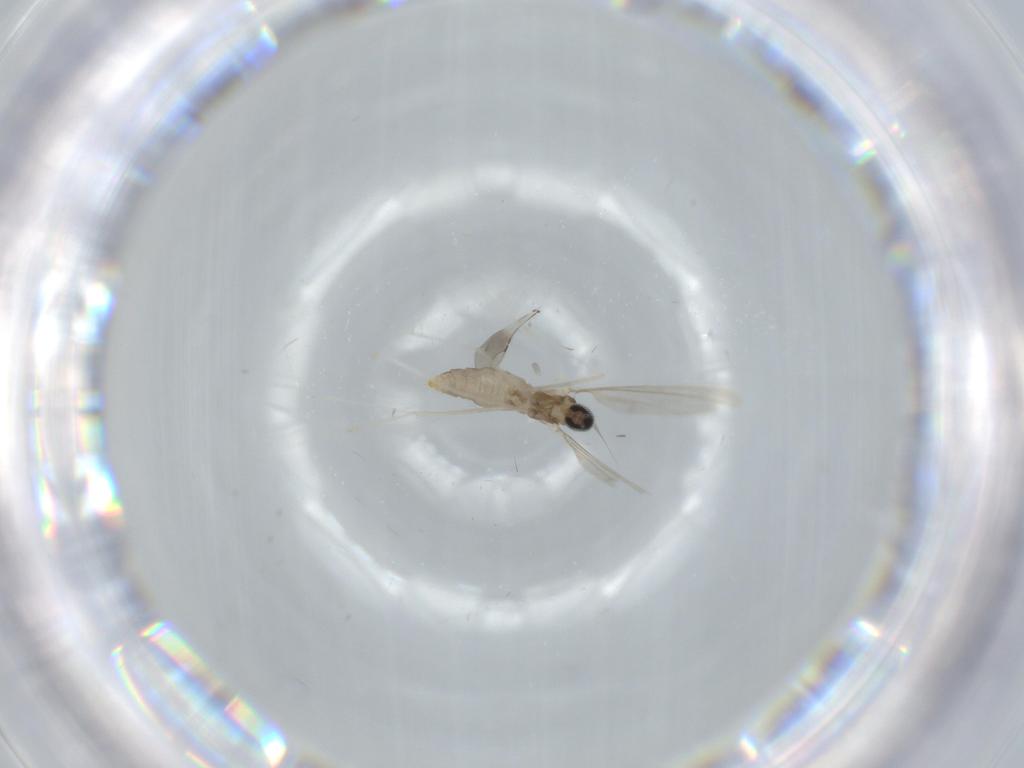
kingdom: Animalia
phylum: Arthropoda
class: Insecta
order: Diptera
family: Cecidomyiidae
